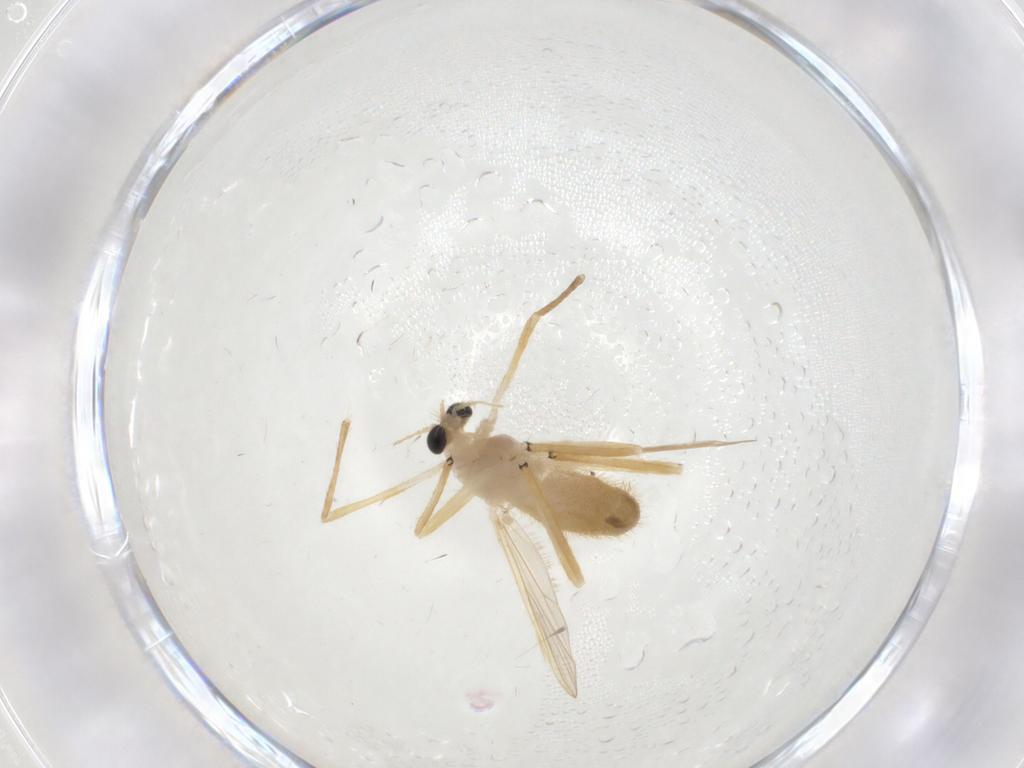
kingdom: Animalia
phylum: Arthropoda
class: Insecta
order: Diptera
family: Chironomidae
